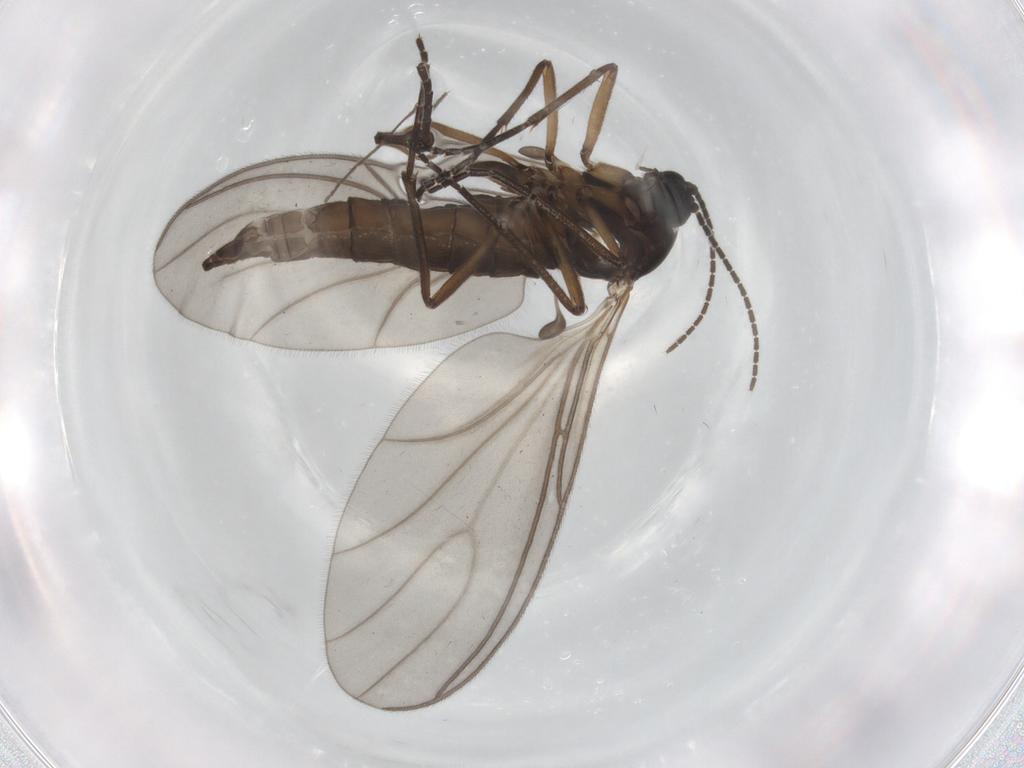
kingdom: Animalia
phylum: Arthropoda
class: Insecta
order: Diptera
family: Sciaridae
